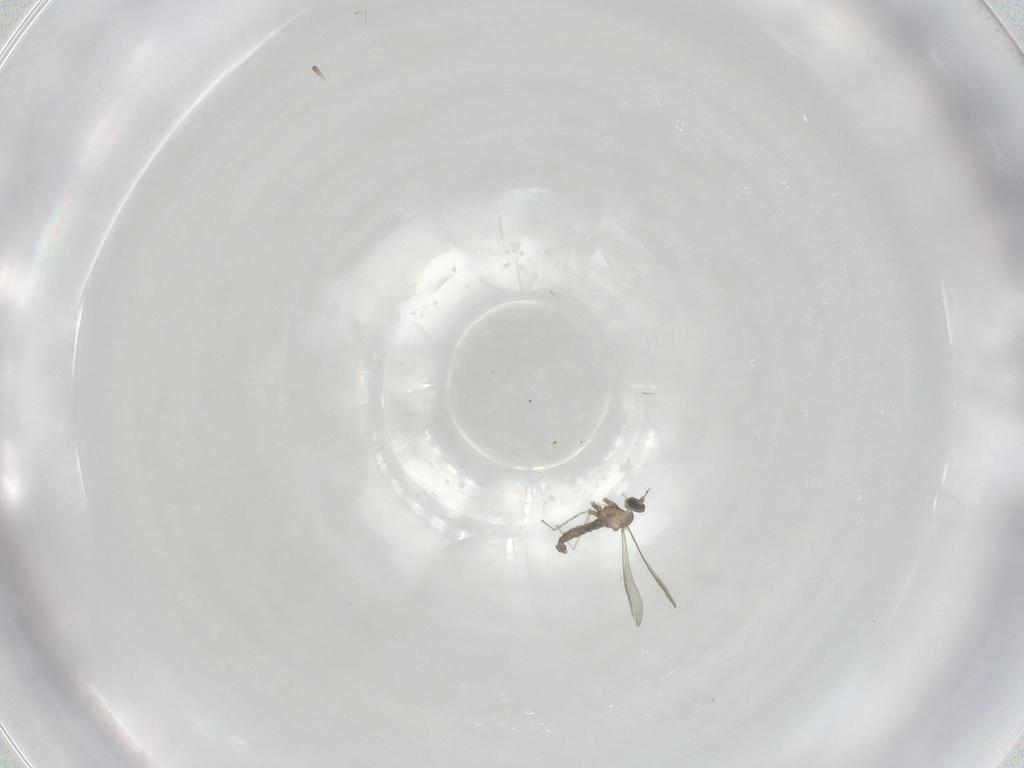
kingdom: Animalia
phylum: Arthropoda
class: Insecta
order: Diptera
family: Cecidomyiidae
